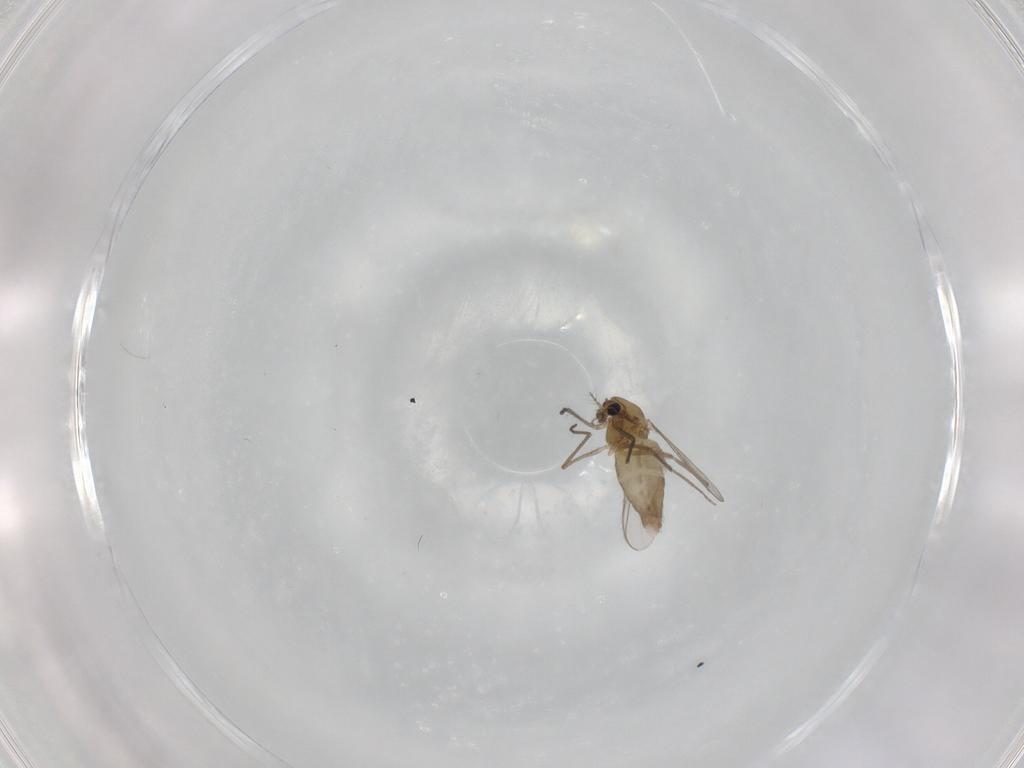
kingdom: Animalia
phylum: Arthropoda
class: Insecta
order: Diptera
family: Chironomidae
